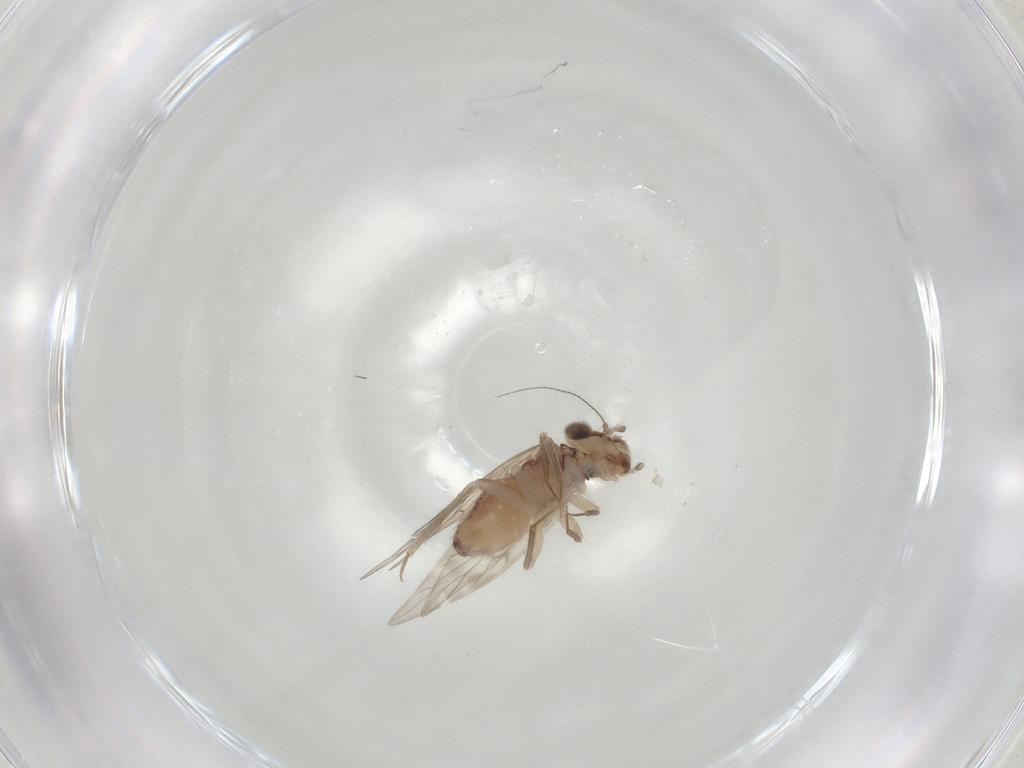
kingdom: Animalia
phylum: Arthropoda
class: Insecta
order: Psocodea
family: Lepidopsocidae
